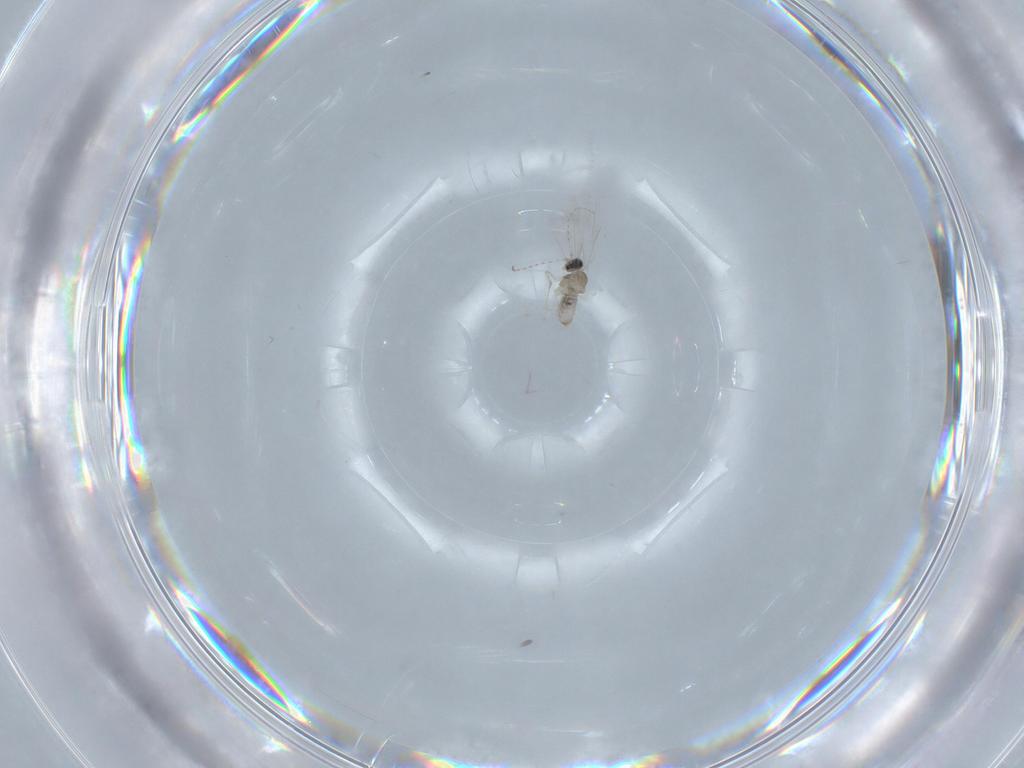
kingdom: Animalia
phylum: Arthropoda
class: Insecta
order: Diptera
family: Cecidomyiidae
